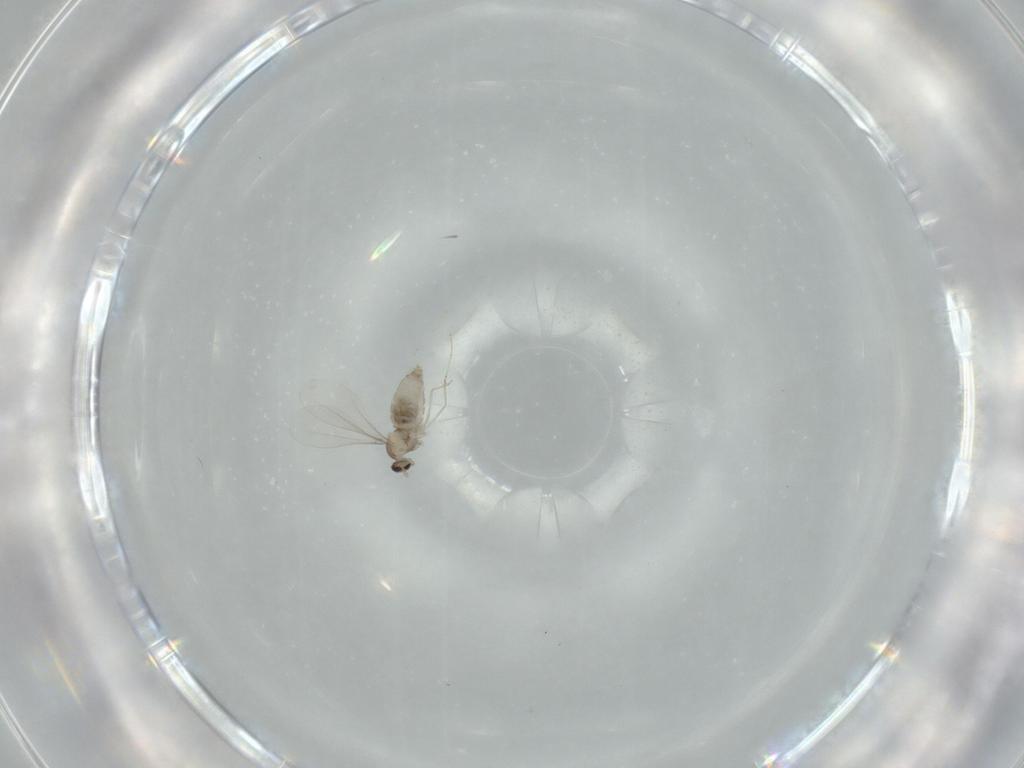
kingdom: Animalia
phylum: Arthropoda
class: Insecta
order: Diptera
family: Cecidomyiidae
